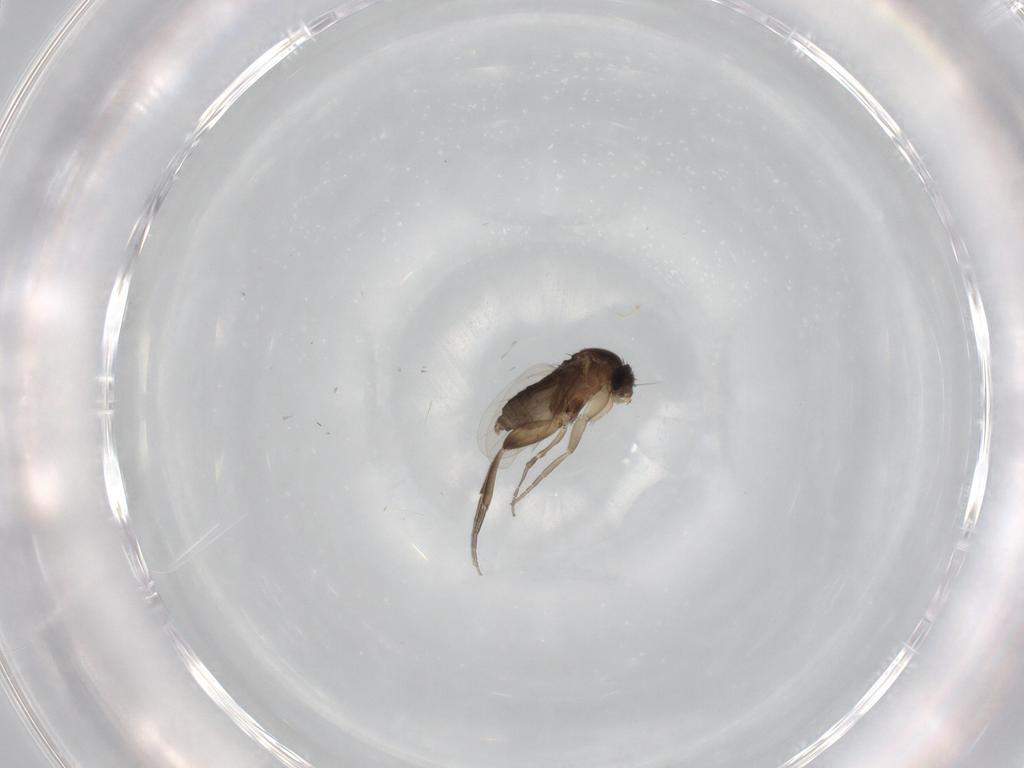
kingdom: Animalia
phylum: Arthropoda
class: Insecta
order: Diptera
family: Phoridae
